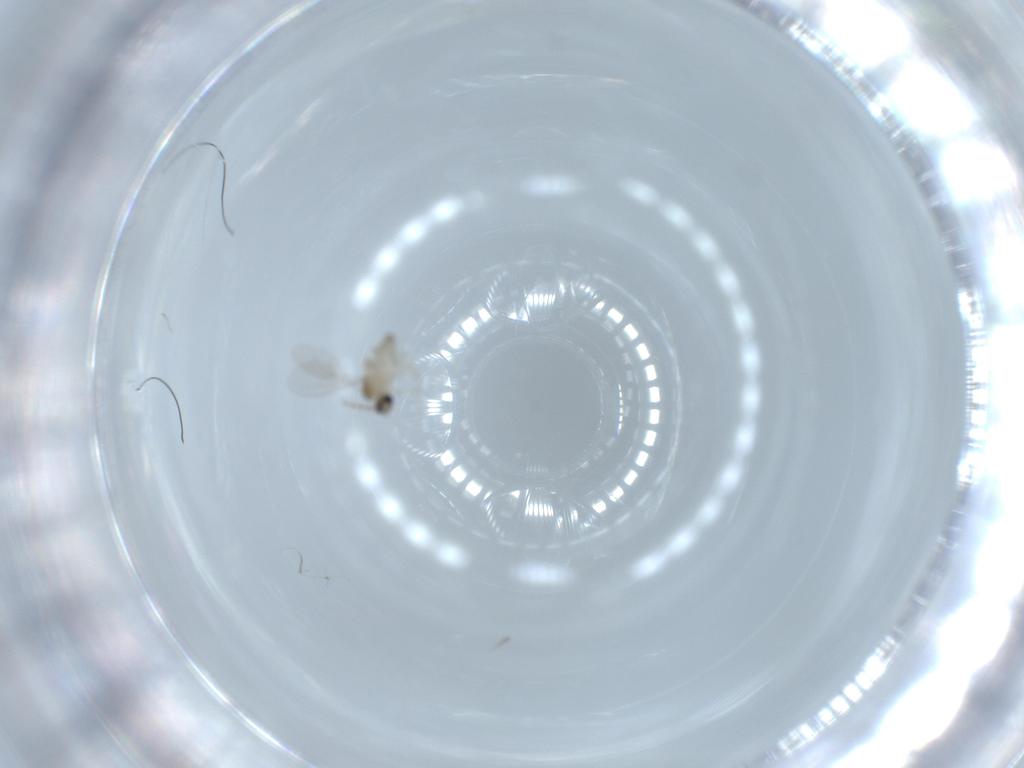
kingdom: Animalia
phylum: Arthropoda
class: Insecta
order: Diptera
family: Cecidomyiidae
